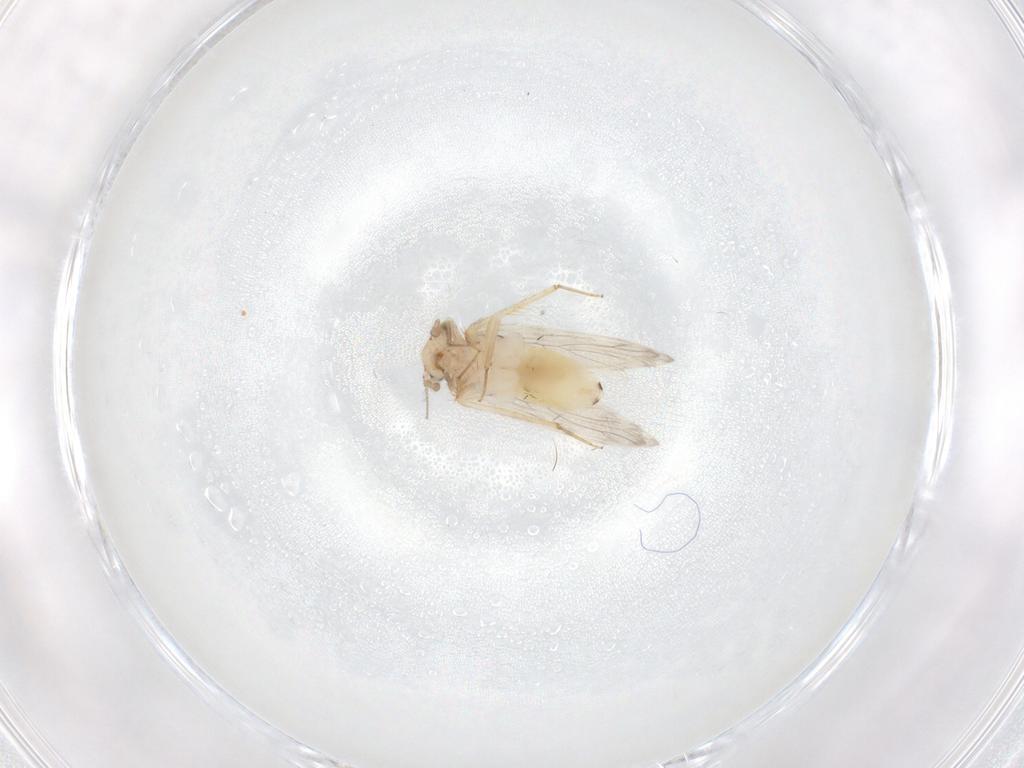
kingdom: Animalia
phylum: Arthropoda
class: Insecta
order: Psocodea
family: Lepidopsocidae
